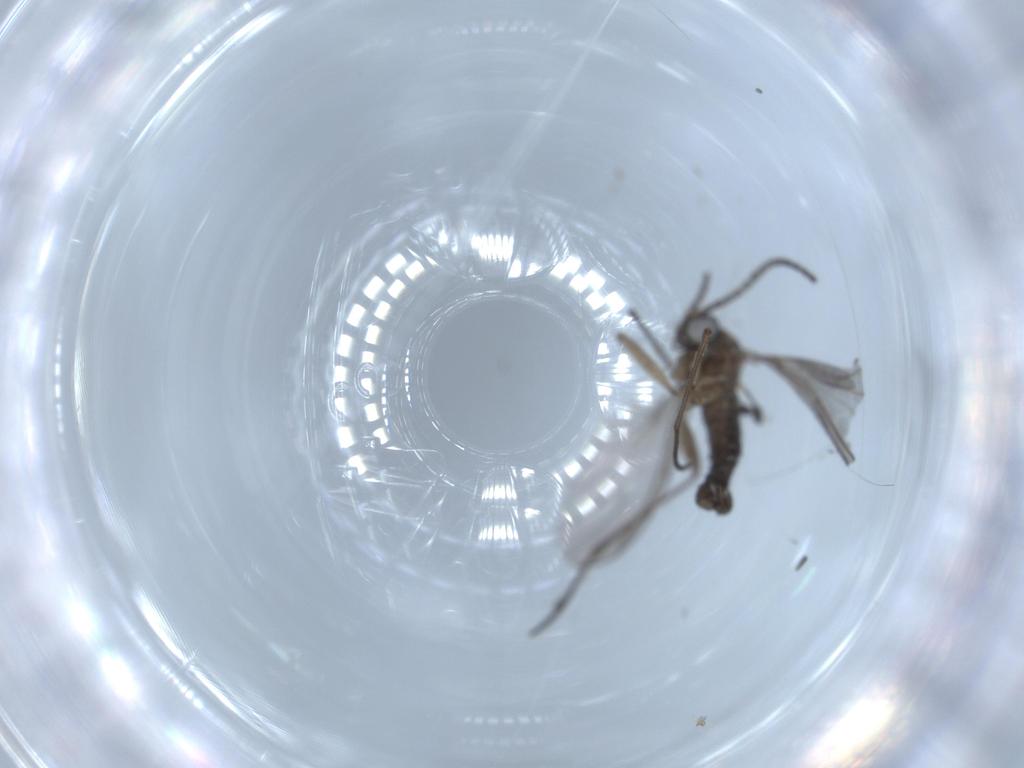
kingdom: Animalia
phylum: Arthropoda
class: Insecta
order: Diptera
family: Sciaridae
